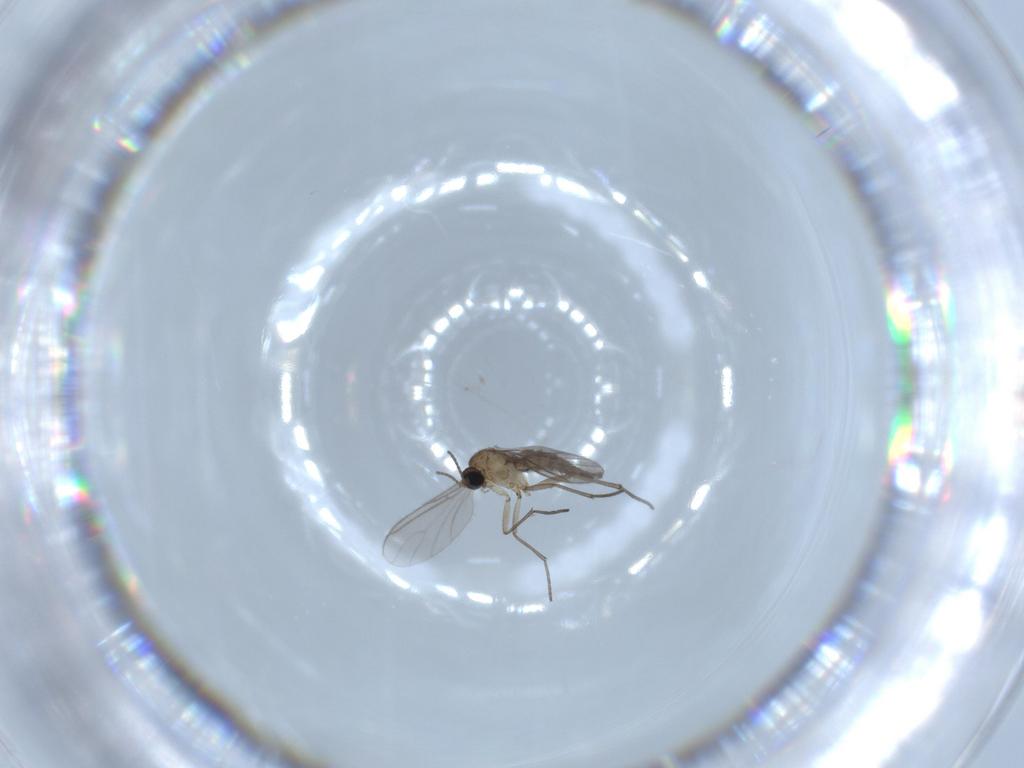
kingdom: Animalia
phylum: Arthropoda
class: Insecta
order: Diptera
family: Sciaridae
